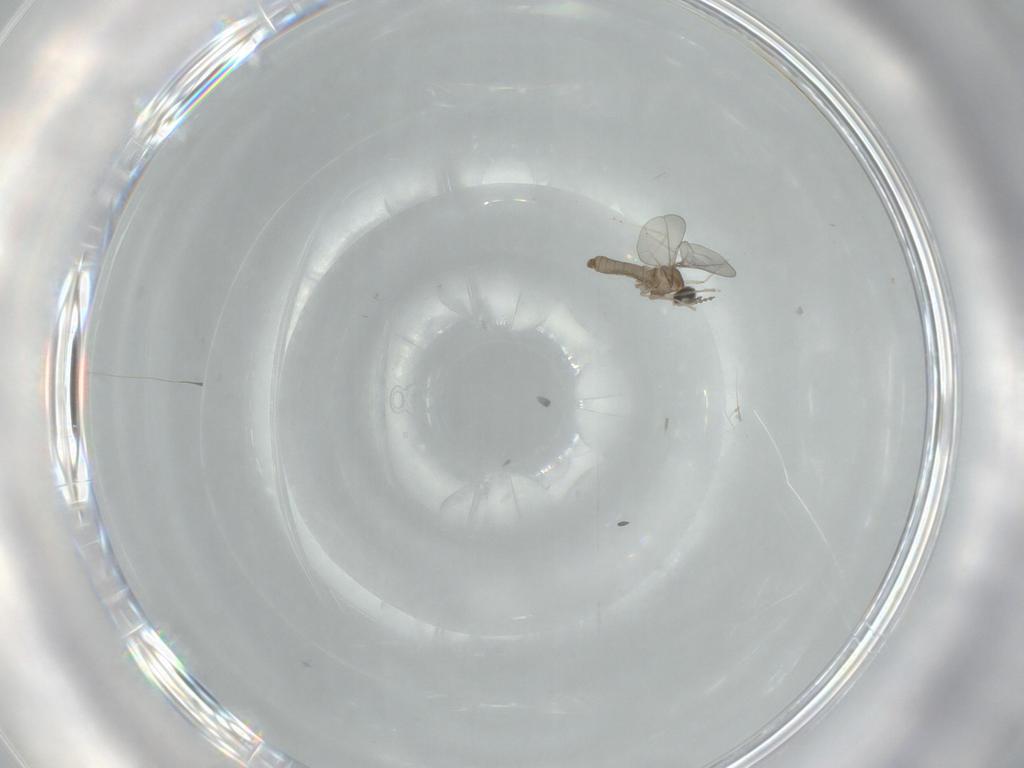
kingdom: Animalia
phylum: Arthropoda
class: Insecta
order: Diptera
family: Cecidomyiidae
